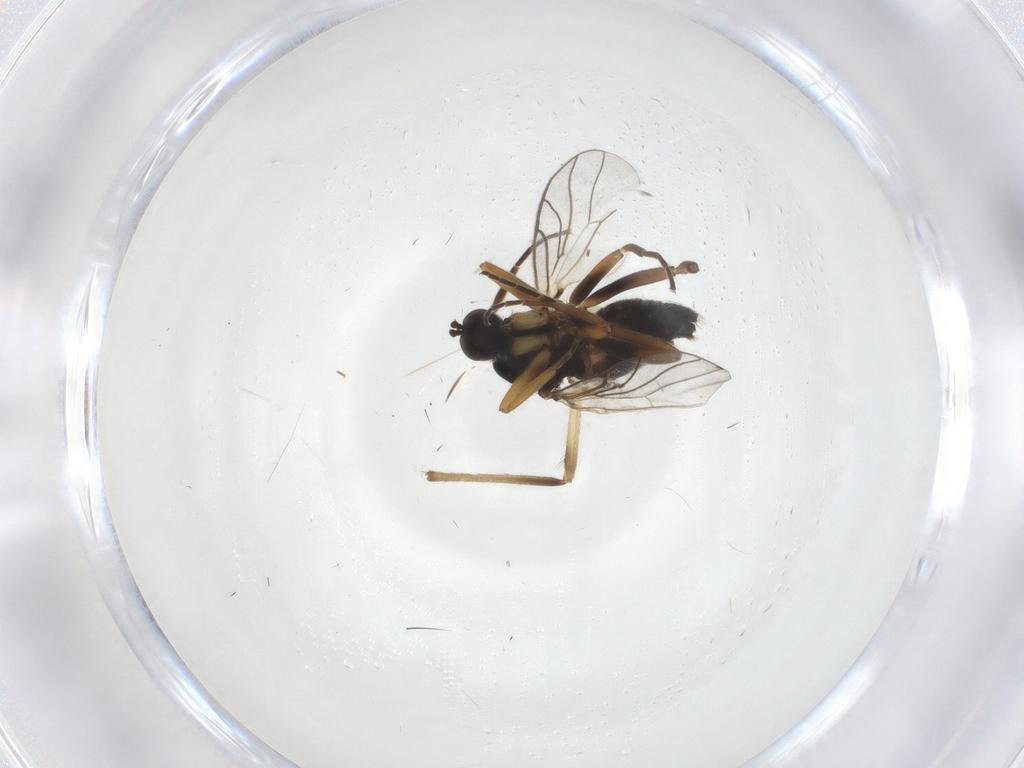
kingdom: Animalia
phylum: Arthropoda
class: Insecta
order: Diptera
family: Hybotidae
